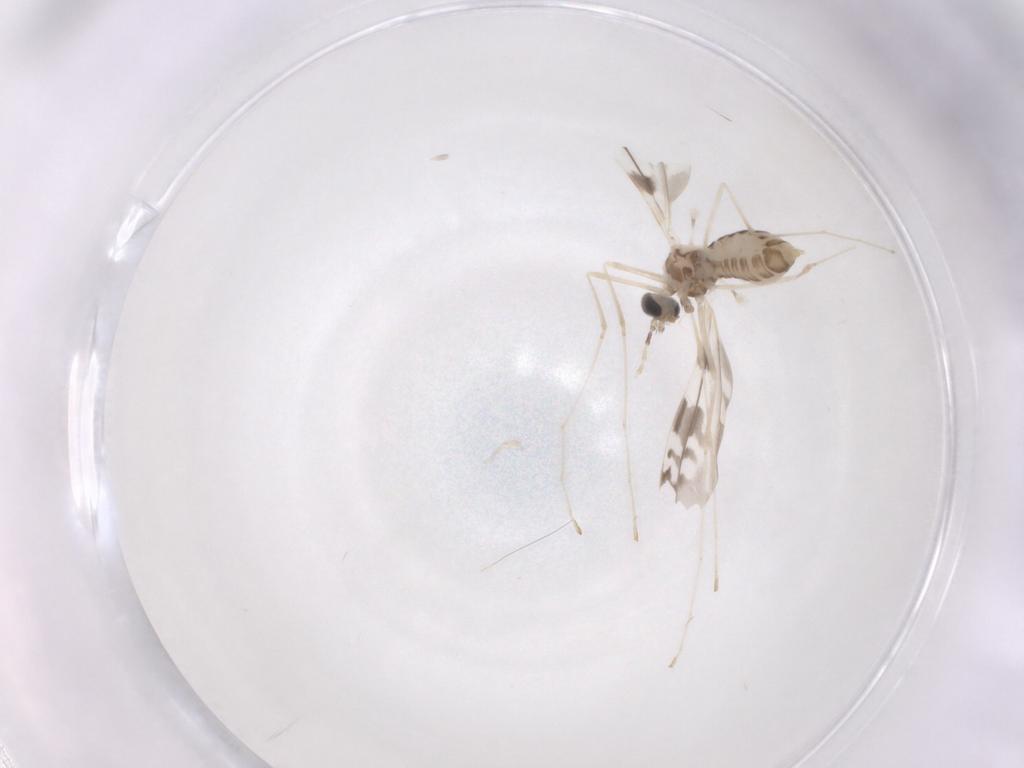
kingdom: Animalia
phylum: Arthropoda
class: Insecta
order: Diptera
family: Cecidomyiidae
